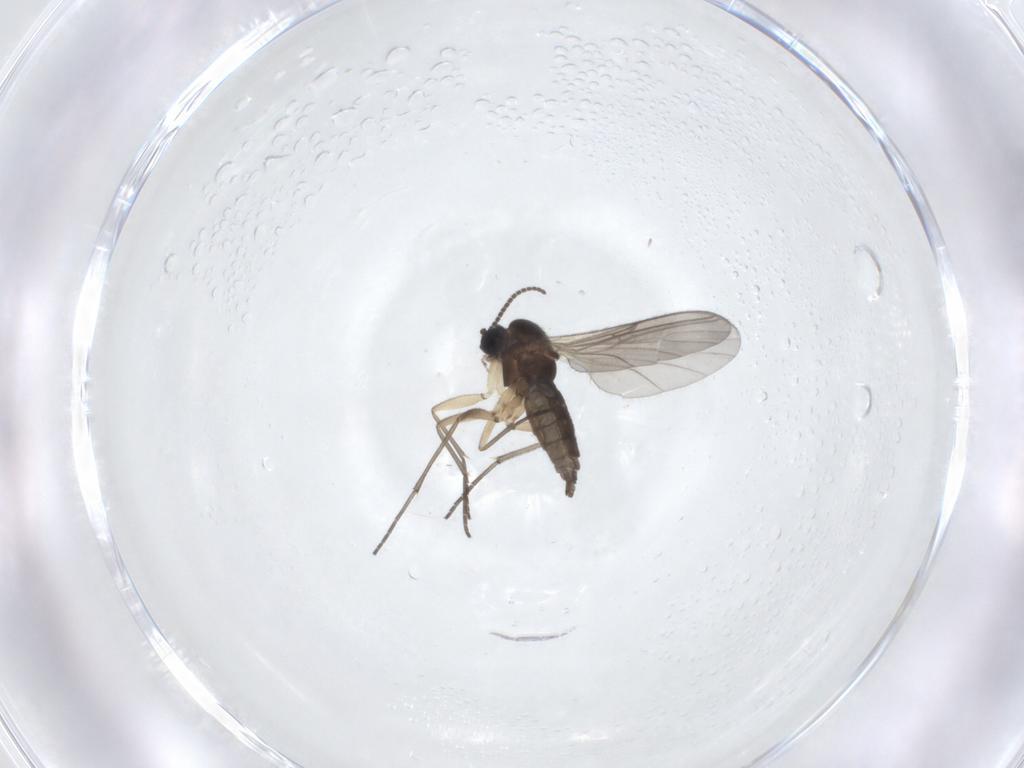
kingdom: Animalia
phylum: Arthropoda
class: Insecta
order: Diptera
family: Sciaridae
